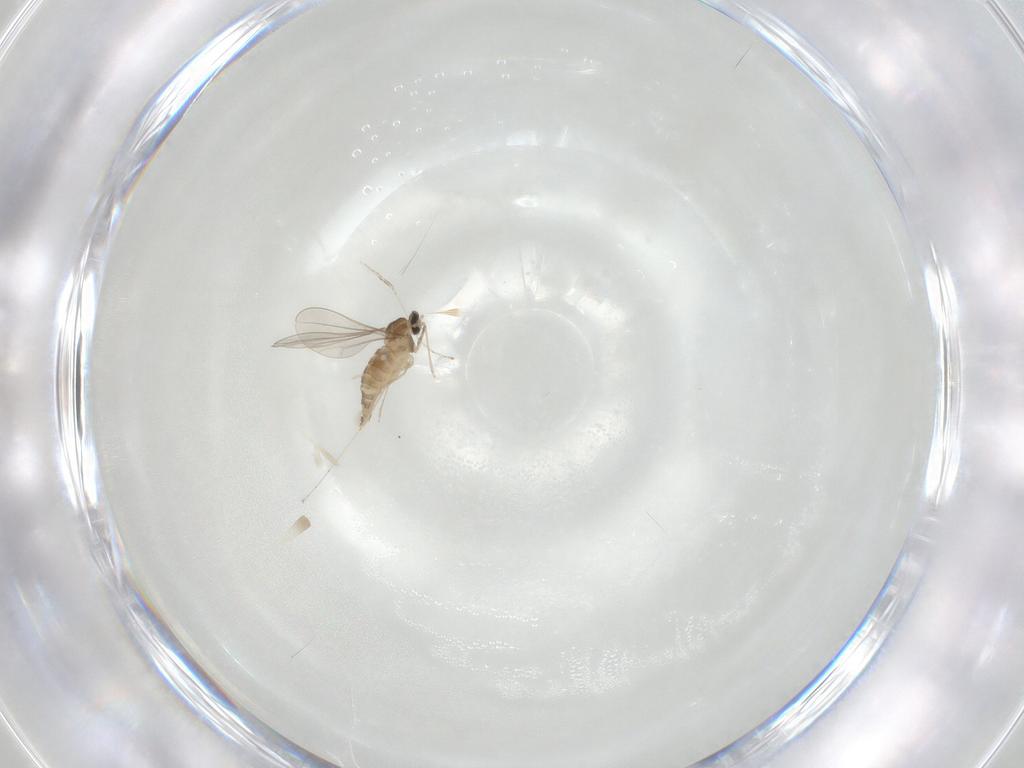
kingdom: Animalia
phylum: Arthropoda
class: Insecta
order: Diptera
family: Cecidomyiidae
